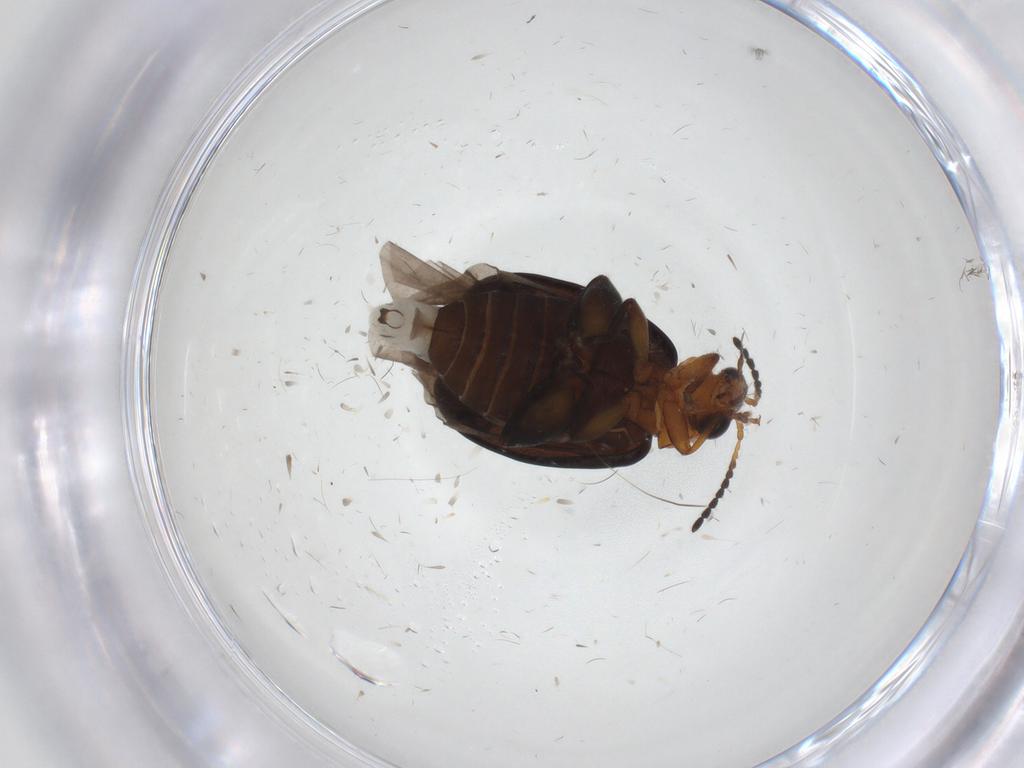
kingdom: Animalia
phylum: Arthropoda
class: Insecta
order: Coleoptera
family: Chrysomelidae
